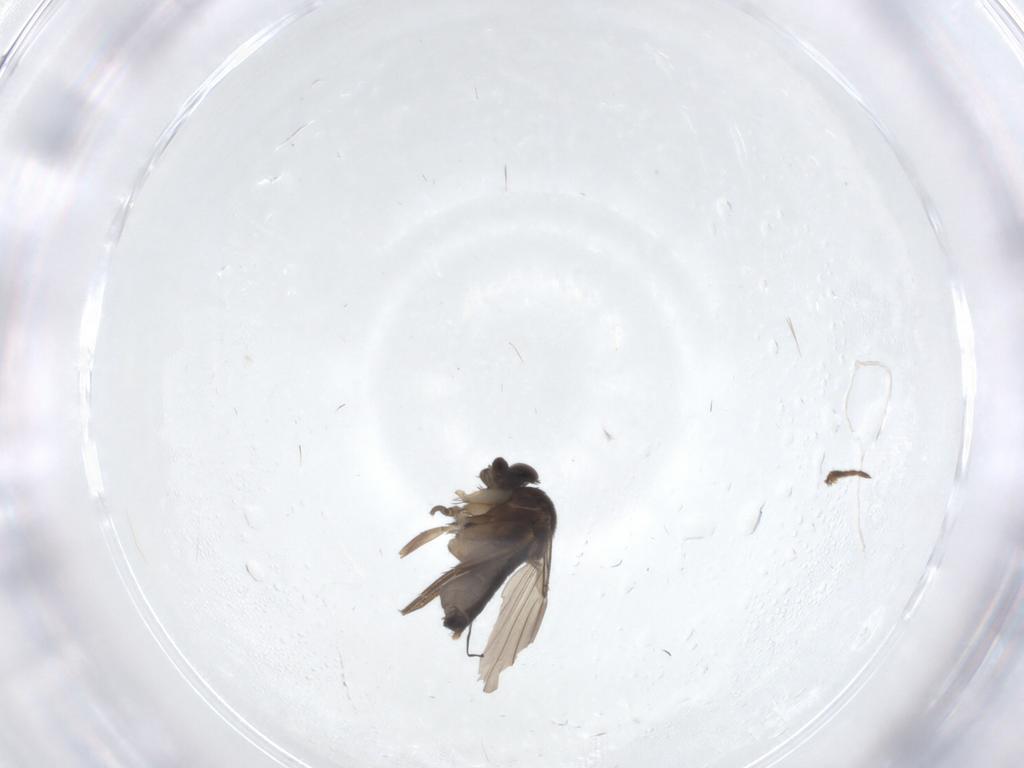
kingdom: Animalia
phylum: Arthropoda
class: Insecta
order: Diptera
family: Phoridae
